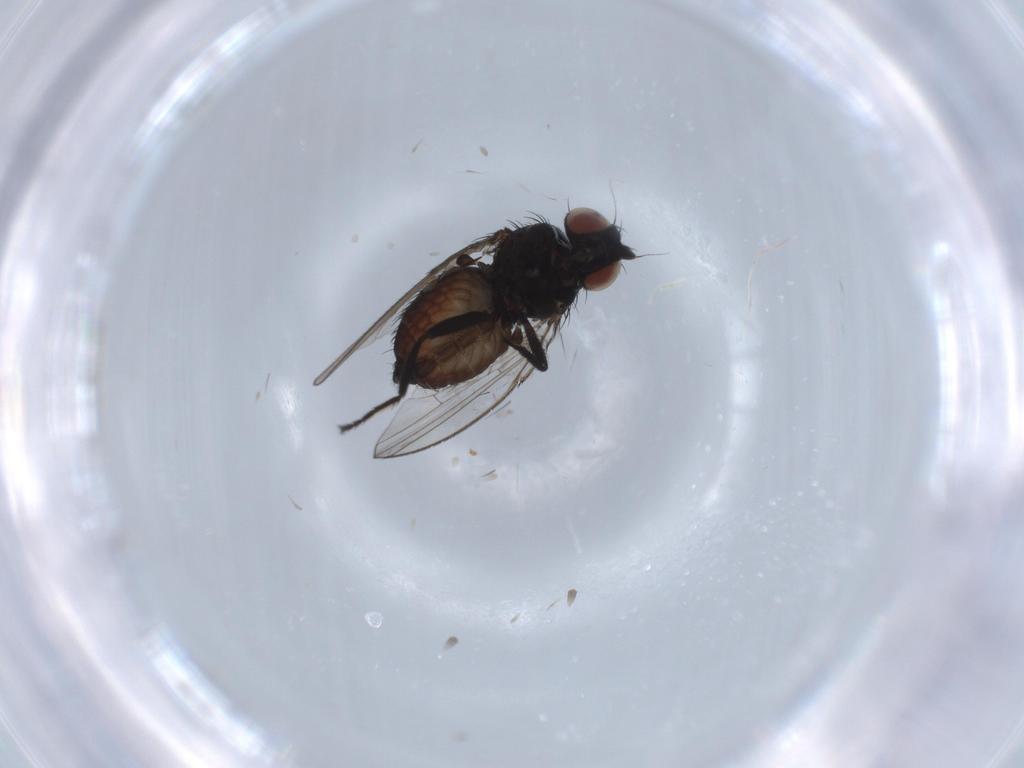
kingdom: Animalia
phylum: Arthropoda
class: Insecta
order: Diptera
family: Milichiidae
